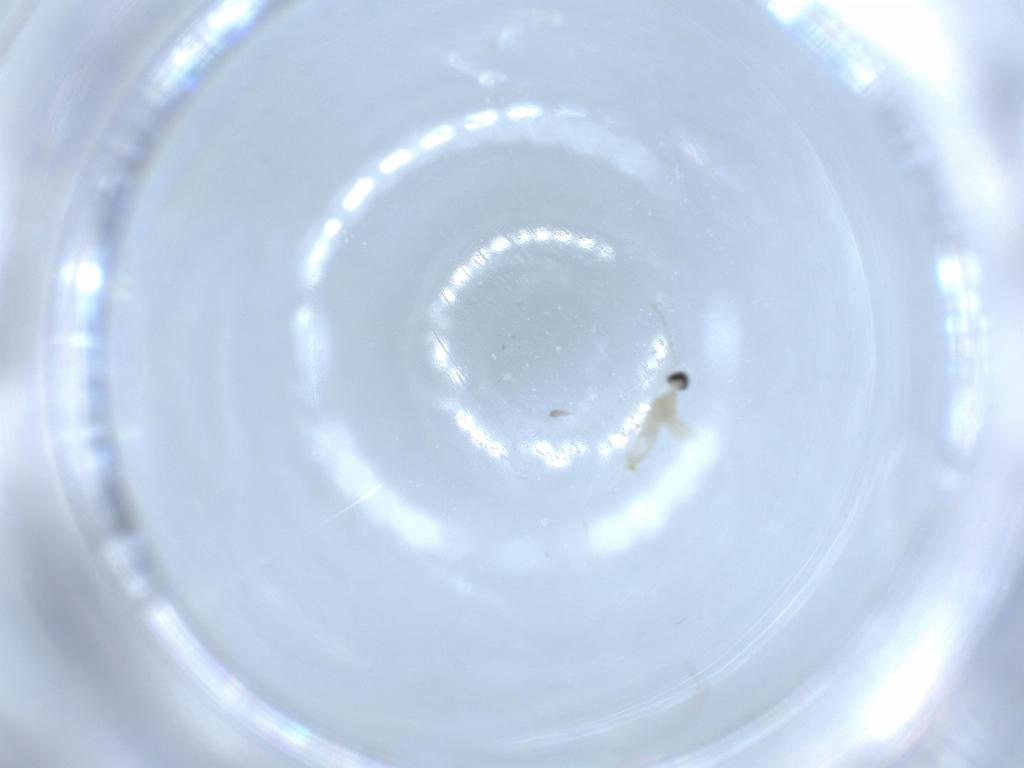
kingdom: Animalia
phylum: Arthropoda
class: Insecta
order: Diptera
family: Cecidomyiidae
